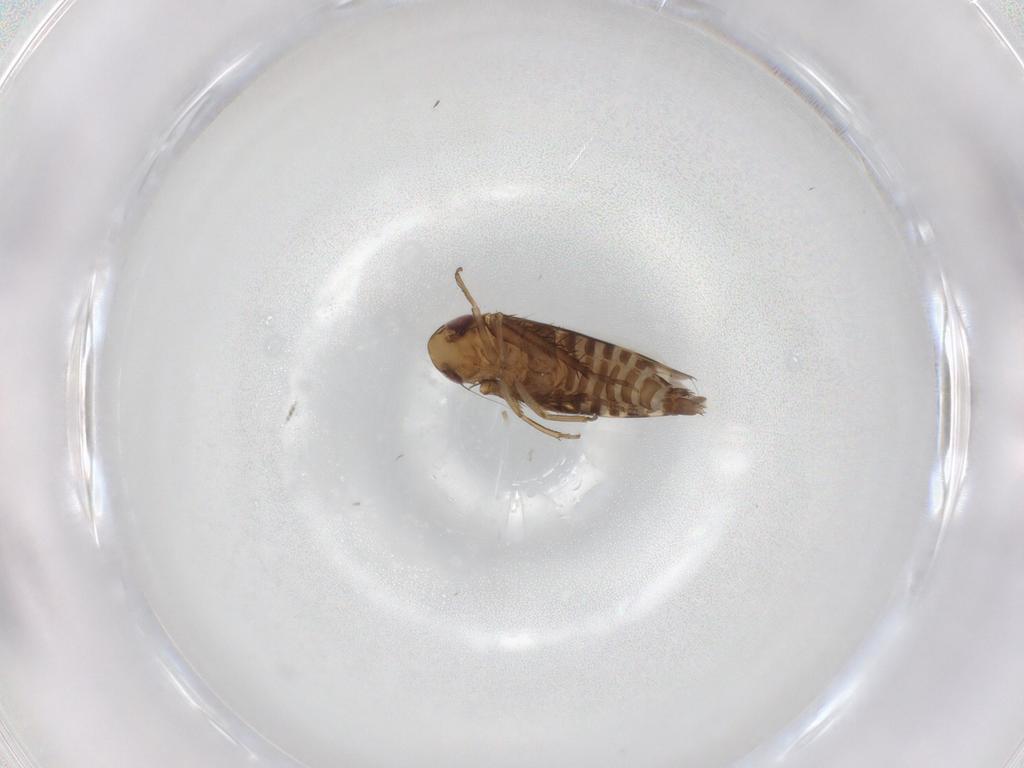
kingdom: Animalia
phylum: Arthropoda
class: Insecta
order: Hemiptera
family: Cicadellidae
